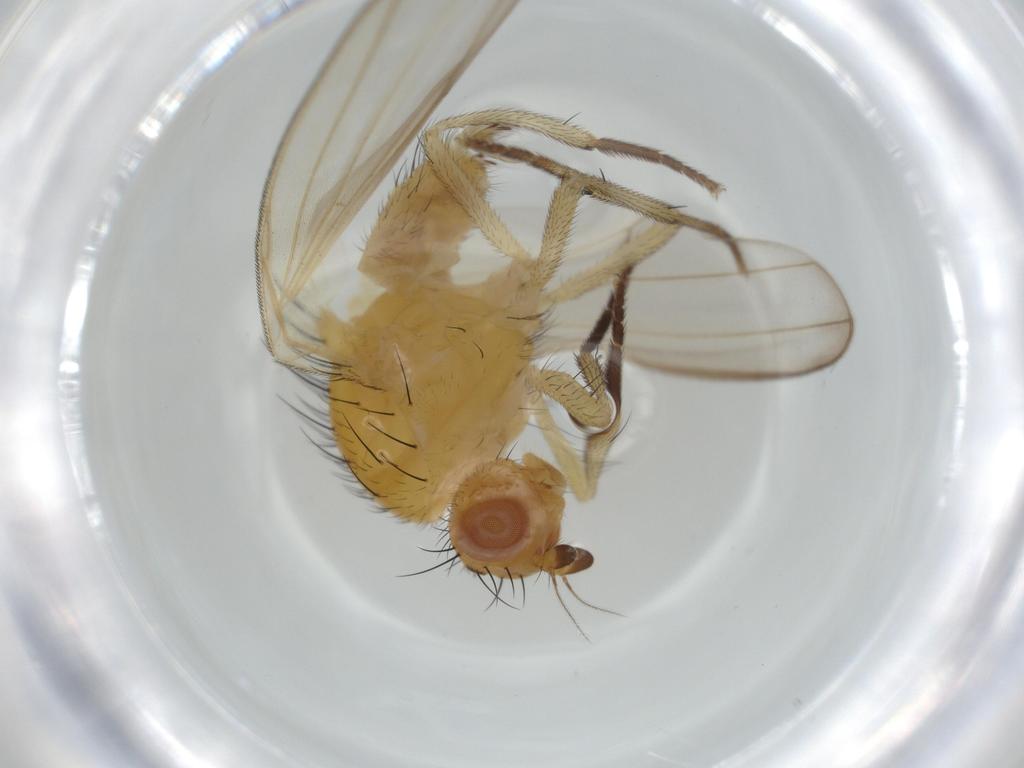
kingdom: Animalia
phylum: Arthropoda
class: Insecta
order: Diptera
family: Lauxaniidae
